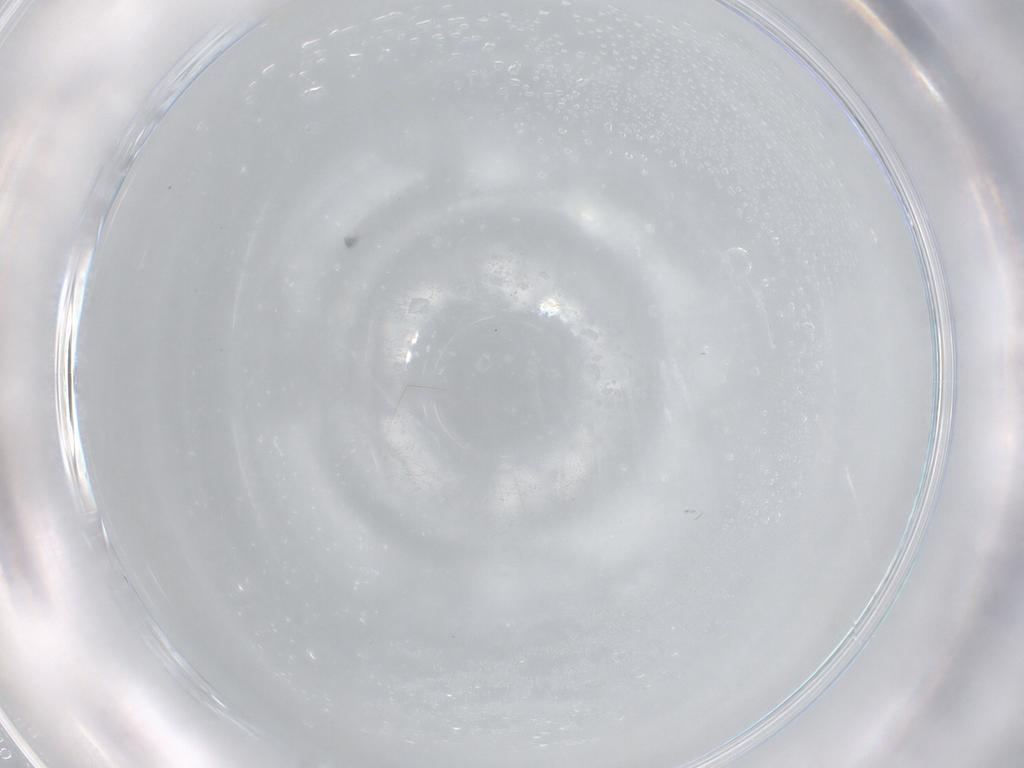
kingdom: Animalia
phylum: Arthropoda
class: Insecta
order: Diptera
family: Ceratopogonidae
